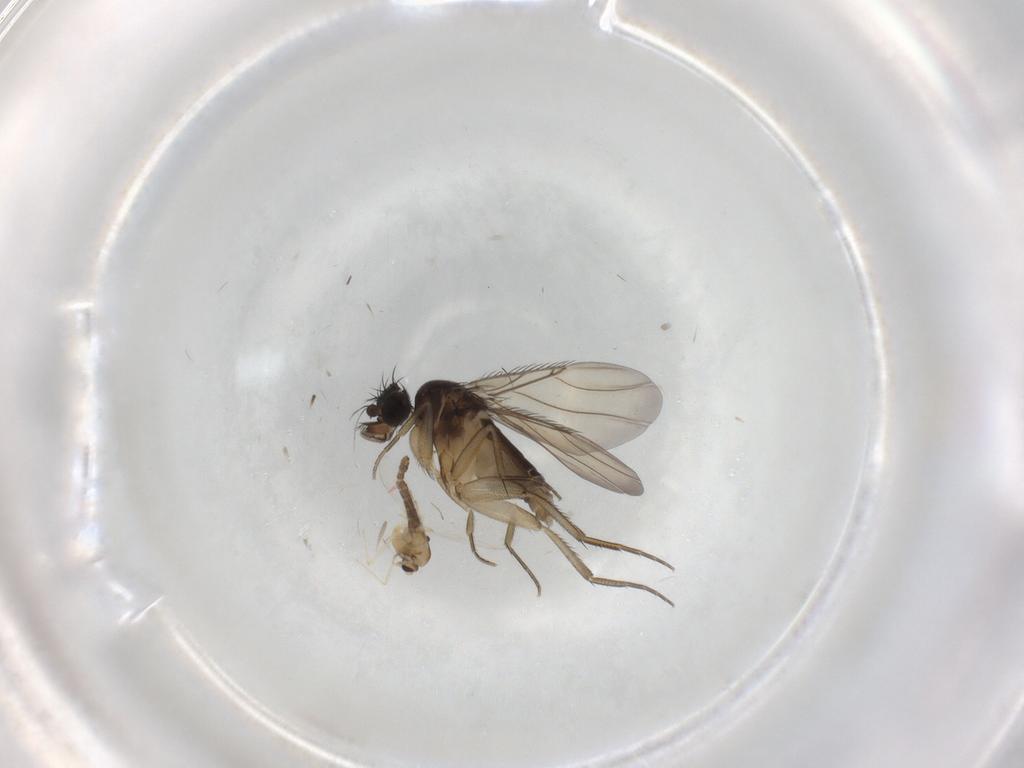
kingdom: Animalia
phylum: Arthropoda
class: Insecta
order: Diptera
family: Phoridae
